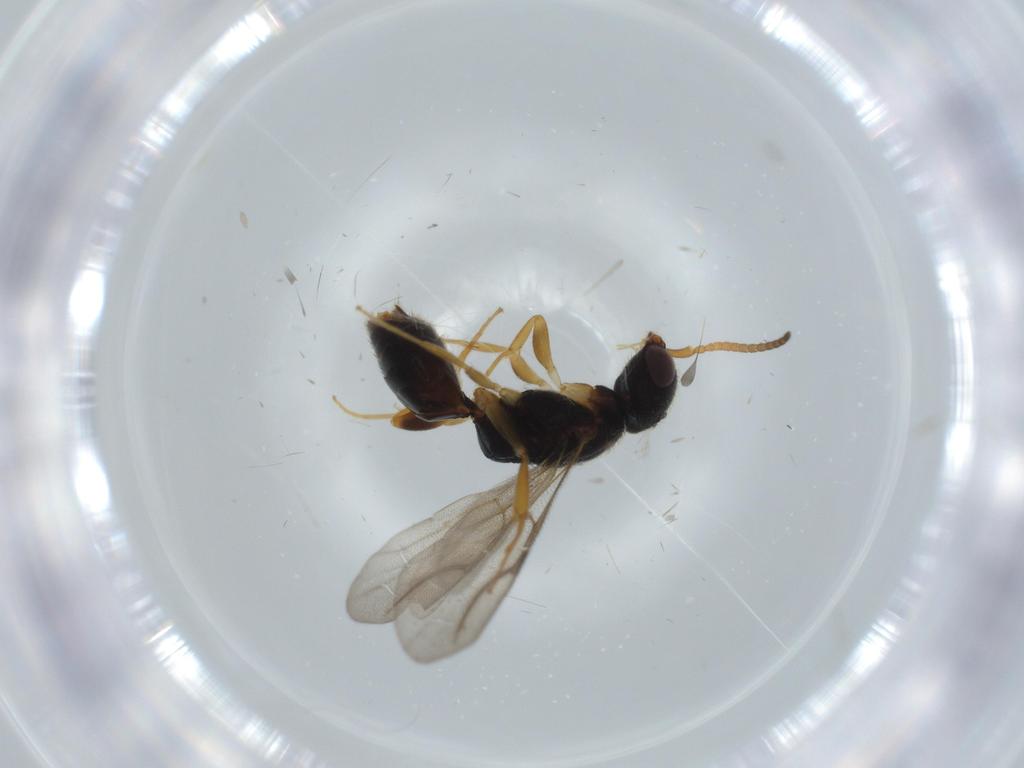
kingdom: Animalia
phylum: Arthropoda
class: Insecta
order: Hymenoptera
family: Bethylidae
